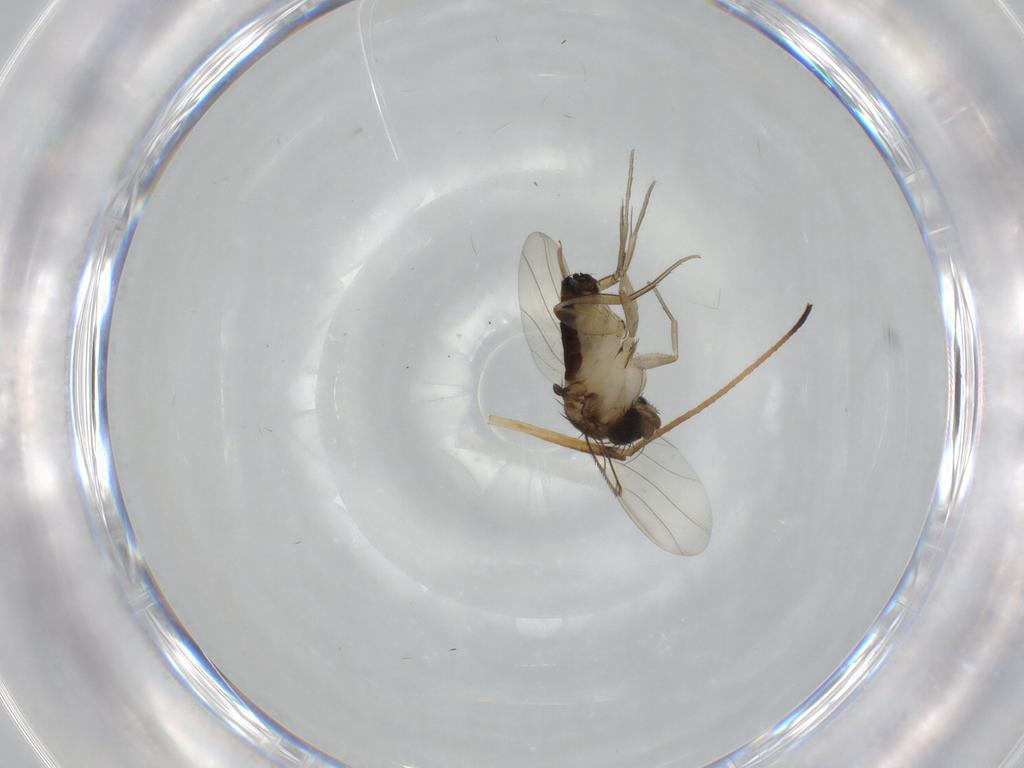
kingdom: Animalia
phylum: Arthropoda
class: Insecta
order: Diptera
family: Phoridae
